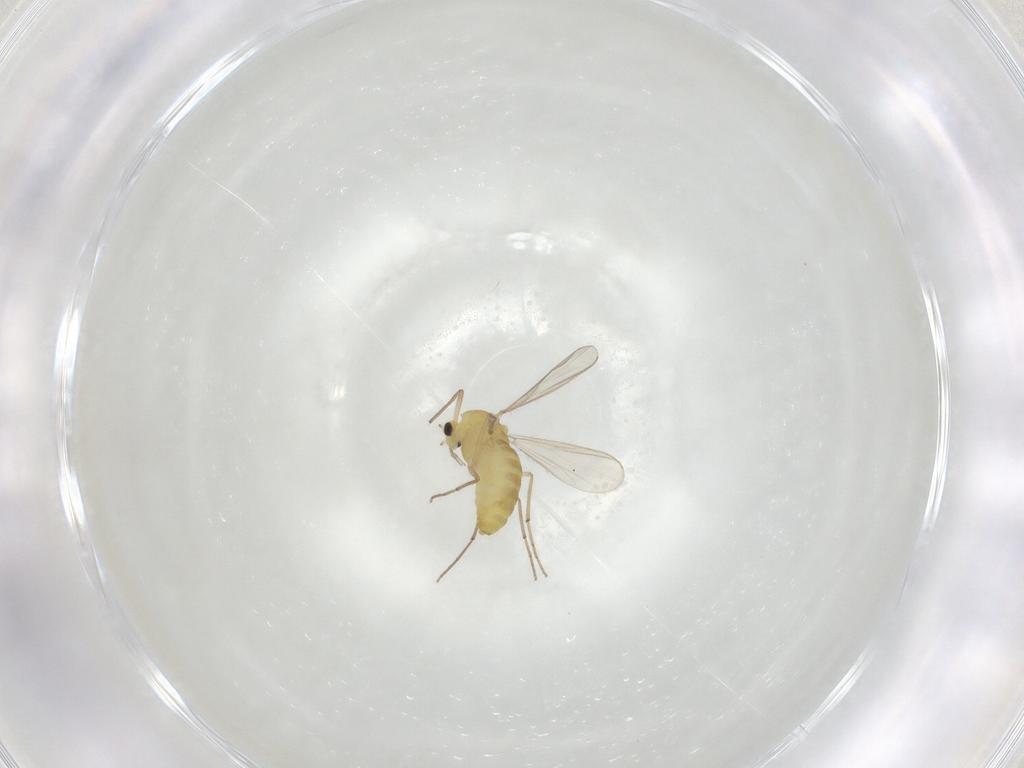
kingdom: Animalia
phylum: Arthropoda
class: Insecta
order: Diptera
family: Chironomidae
